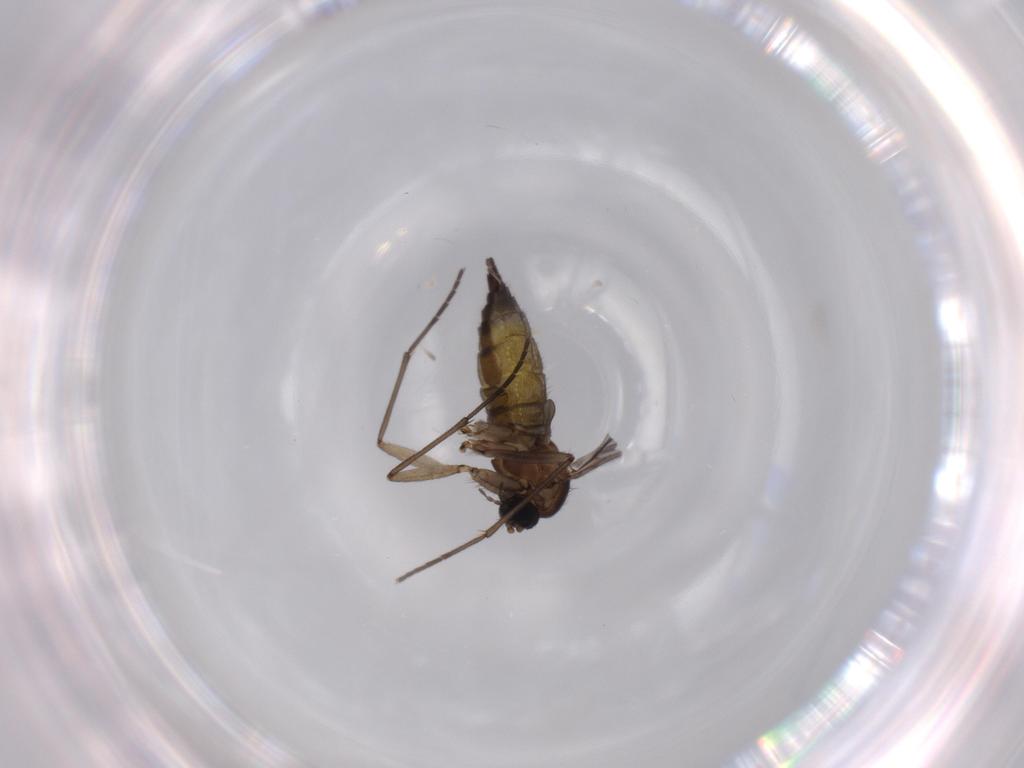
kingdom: Animalia
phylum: Arthropoda
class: Insecta
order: Diptera
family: Sciaridae
